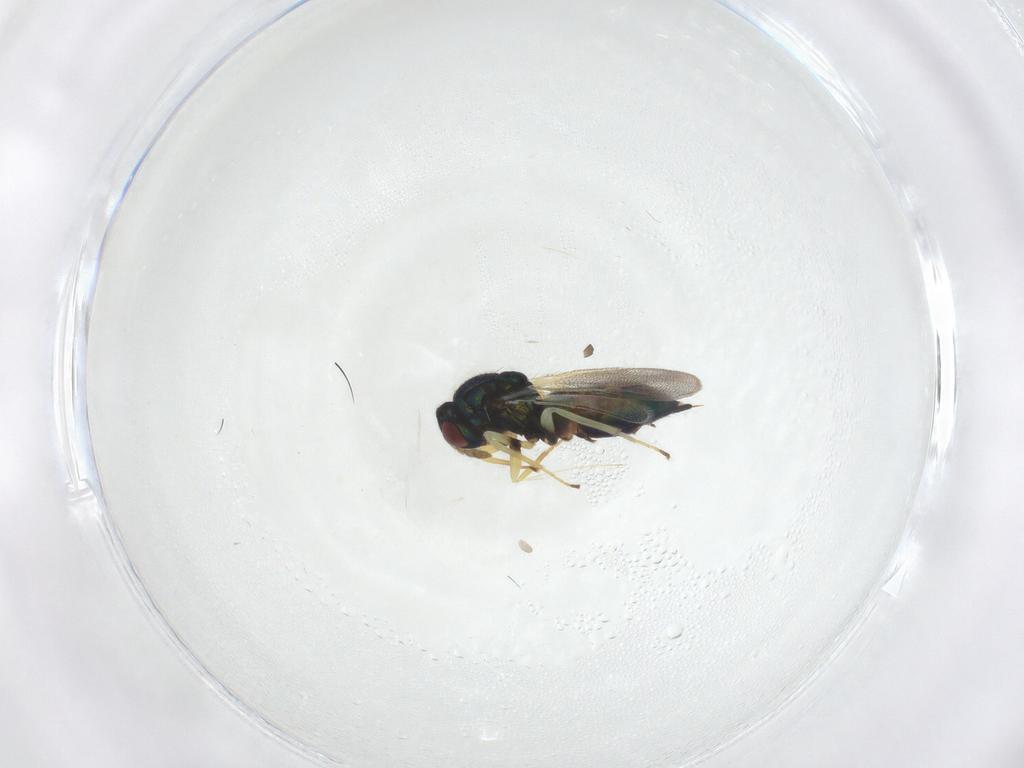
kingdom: Animalia
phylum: Arthropoda
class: Insecta
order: Hymenoptera
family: Eulophidae
